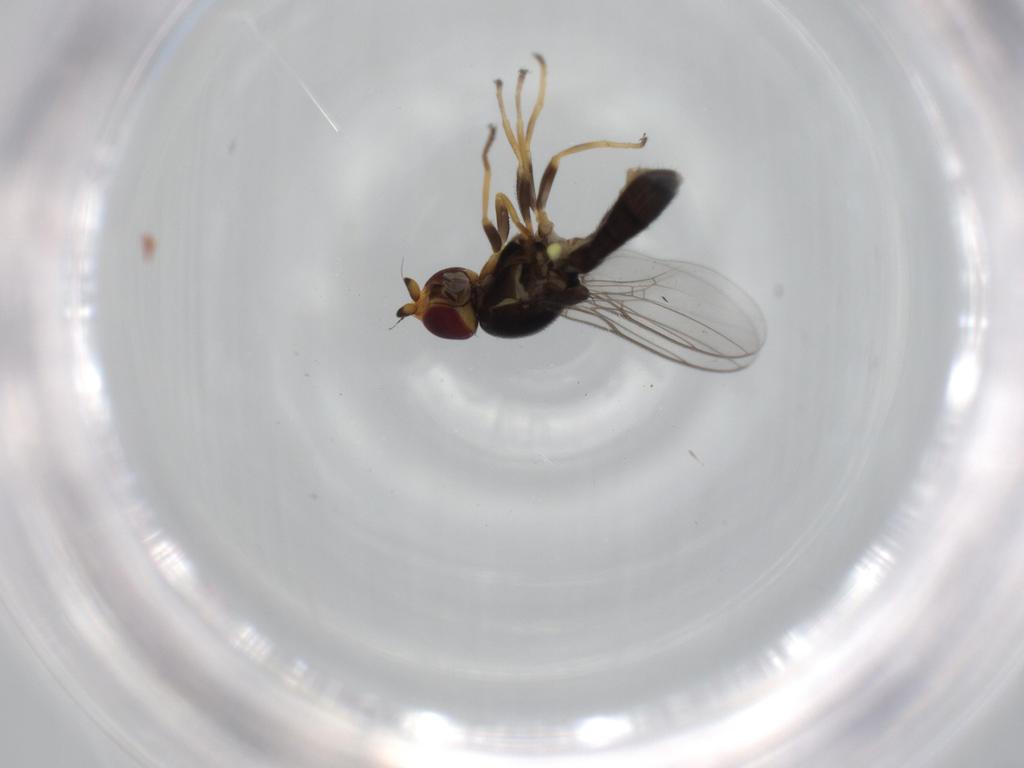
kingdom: Animalia
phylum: Arthropoda
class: Insecta
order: Diptera
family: Chloropidae
